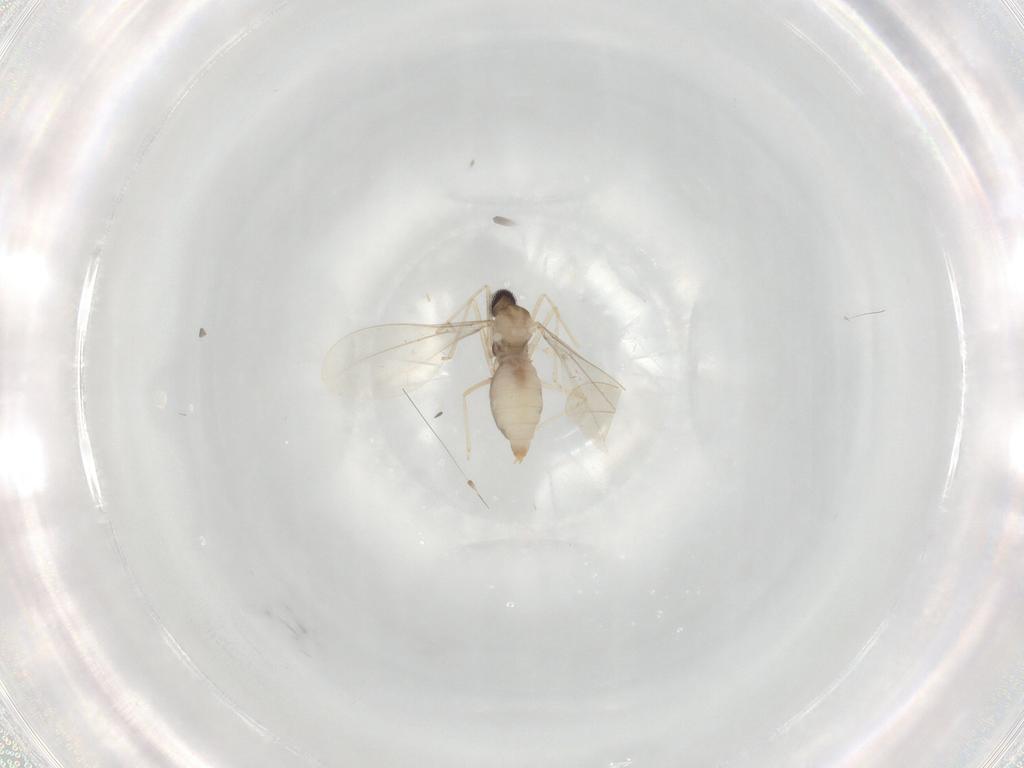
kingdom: Animalia
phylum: Arthropoda
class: Insecta
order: Diptera
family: Cecidomyiidae
